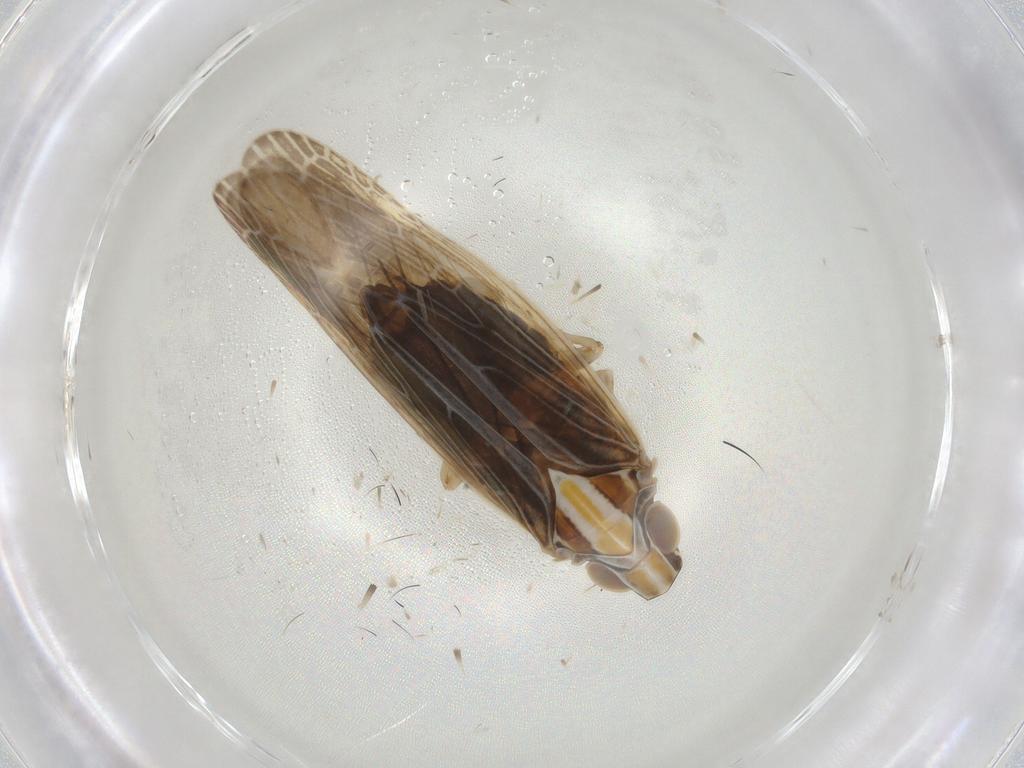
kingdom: Animalia
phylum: Arthropoda
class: Insecta
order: Hemiptera
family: Achilidae
